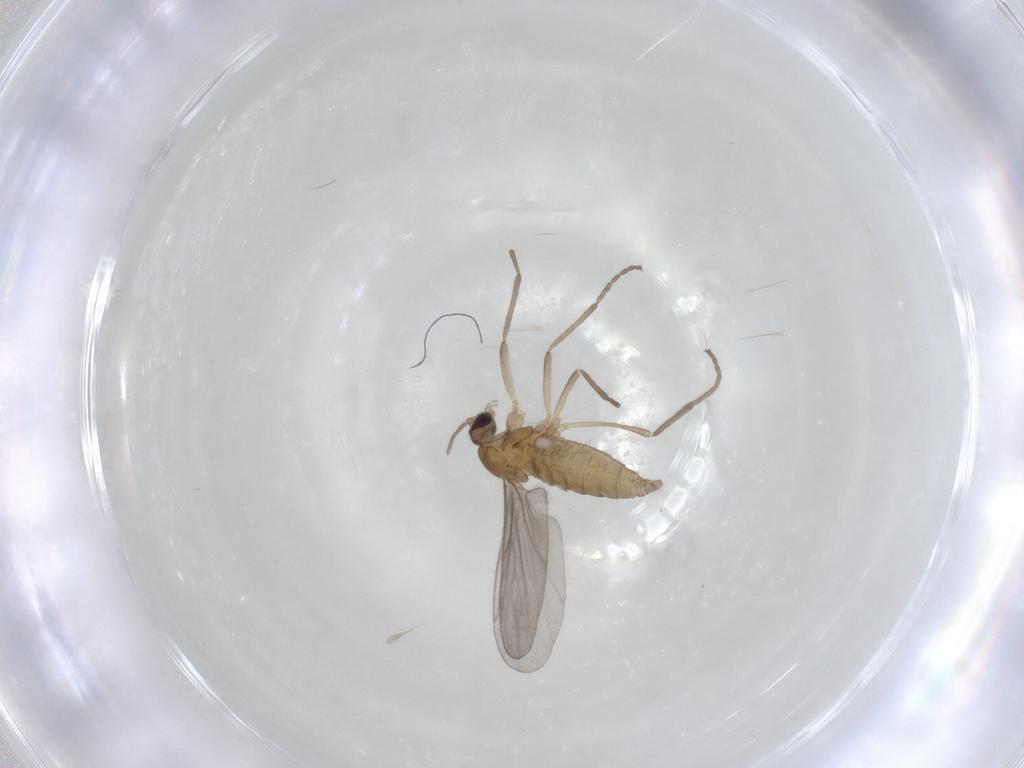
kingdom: Animalia
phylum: Arthropoda
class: Insecta
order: Diptera
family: Cecidomyiidae
